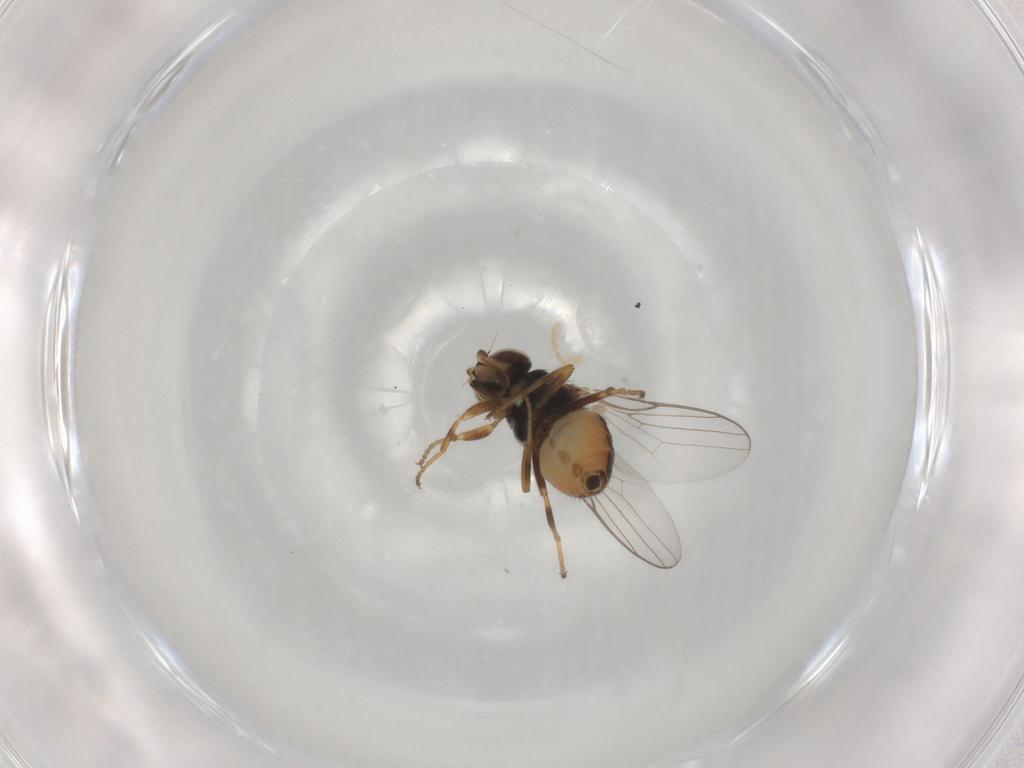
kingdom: Animalia
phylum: Arthropoda
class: Insecta
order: Diptera
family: Chloropidae
